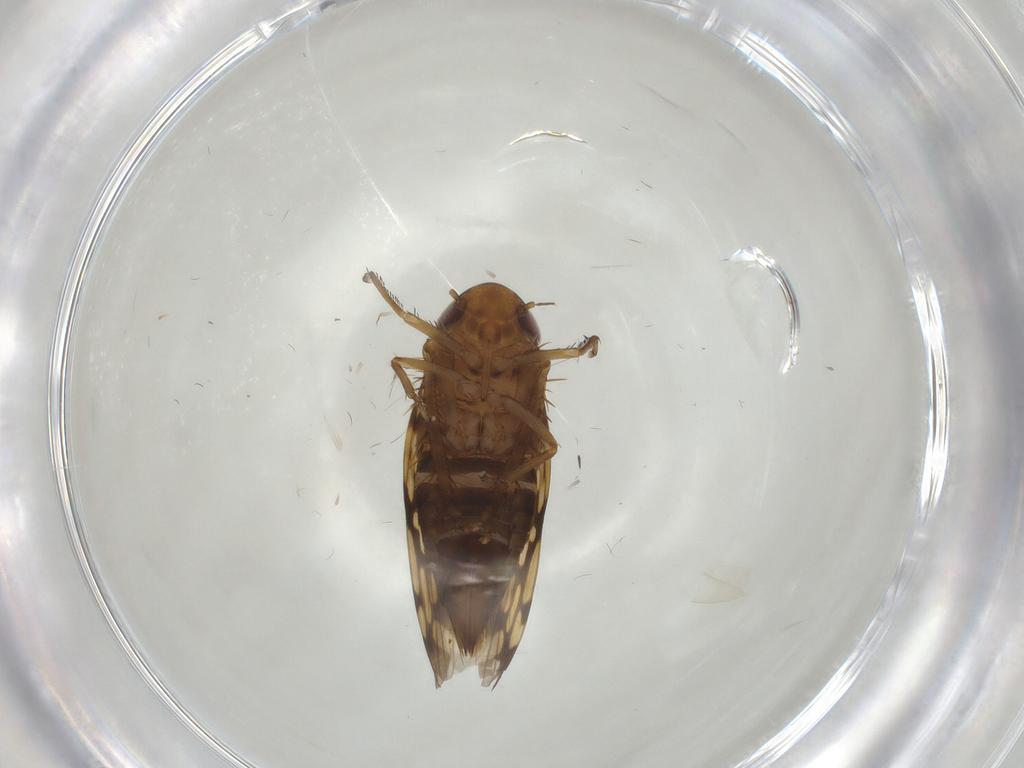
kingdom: Animalia
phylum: Arthropoda
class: Insecta
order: Hemiptera
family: Cicadellidae
